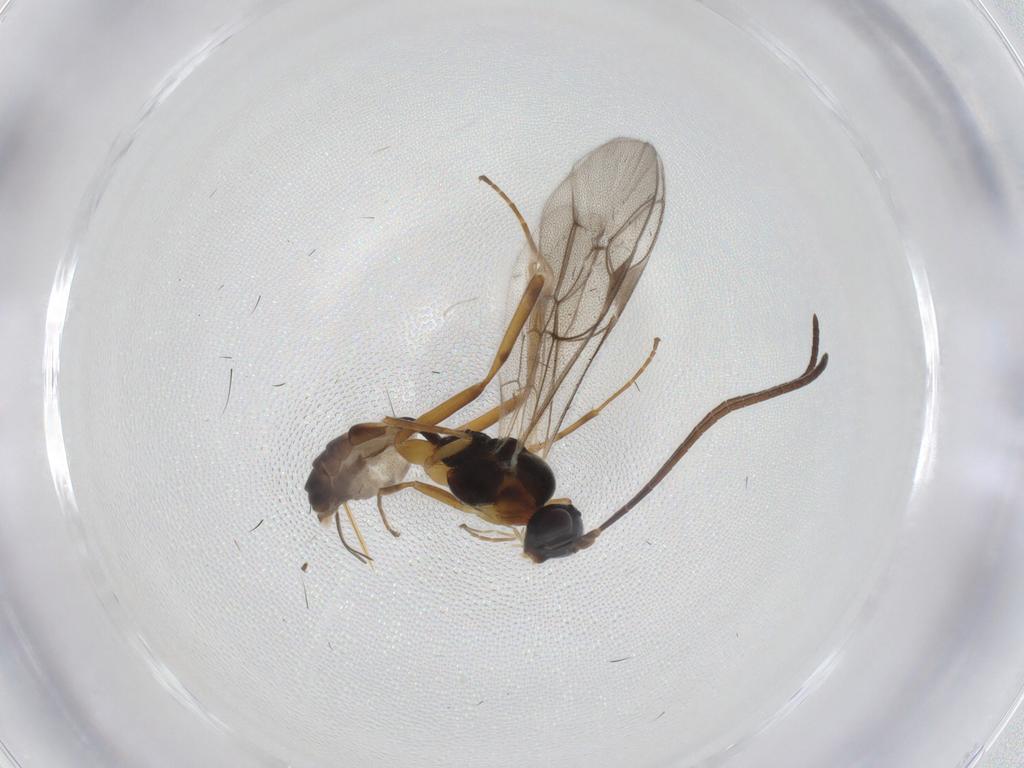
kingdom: Animalia
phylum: Arthropoda
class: Insecta
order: Hymenoptera
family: Ichneumonidae
